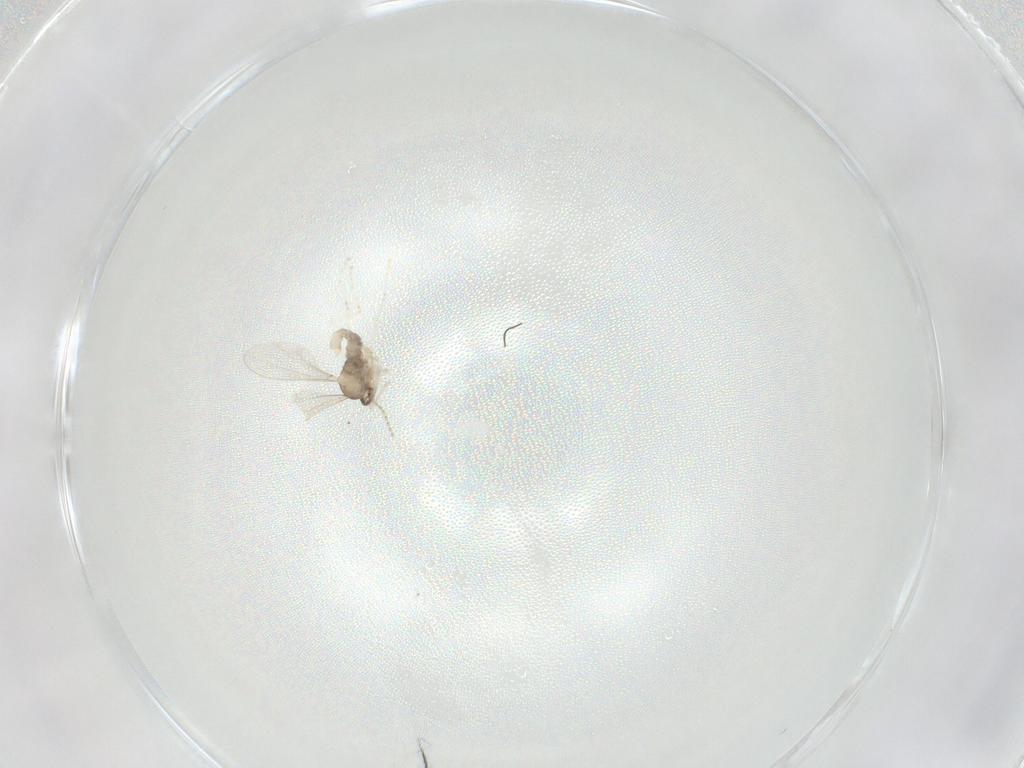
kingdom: Animalia
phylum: Arthropoda
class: Insecta
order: Diptera
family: Cecidomyiidae
